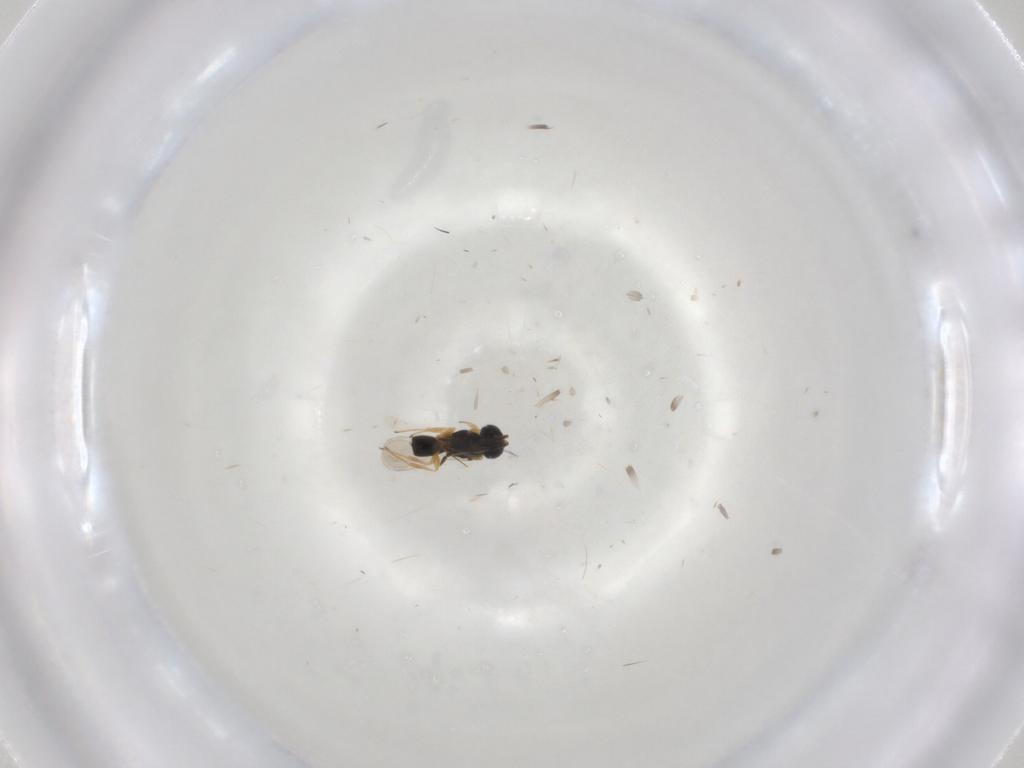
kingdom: Animalia
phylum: Arthropoda
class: Insecta
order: Hymenoptera
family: Scelionidae
